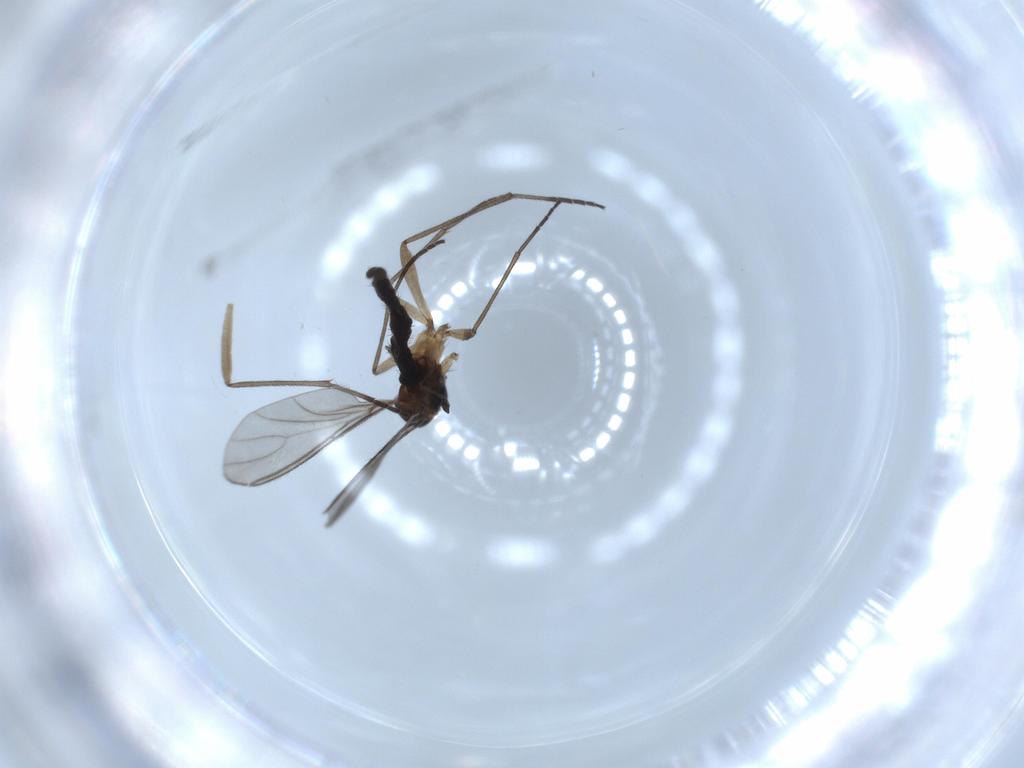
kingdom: Animalia
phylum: Arthropoda
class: Insecta
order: Diptera
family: Sciaridae
